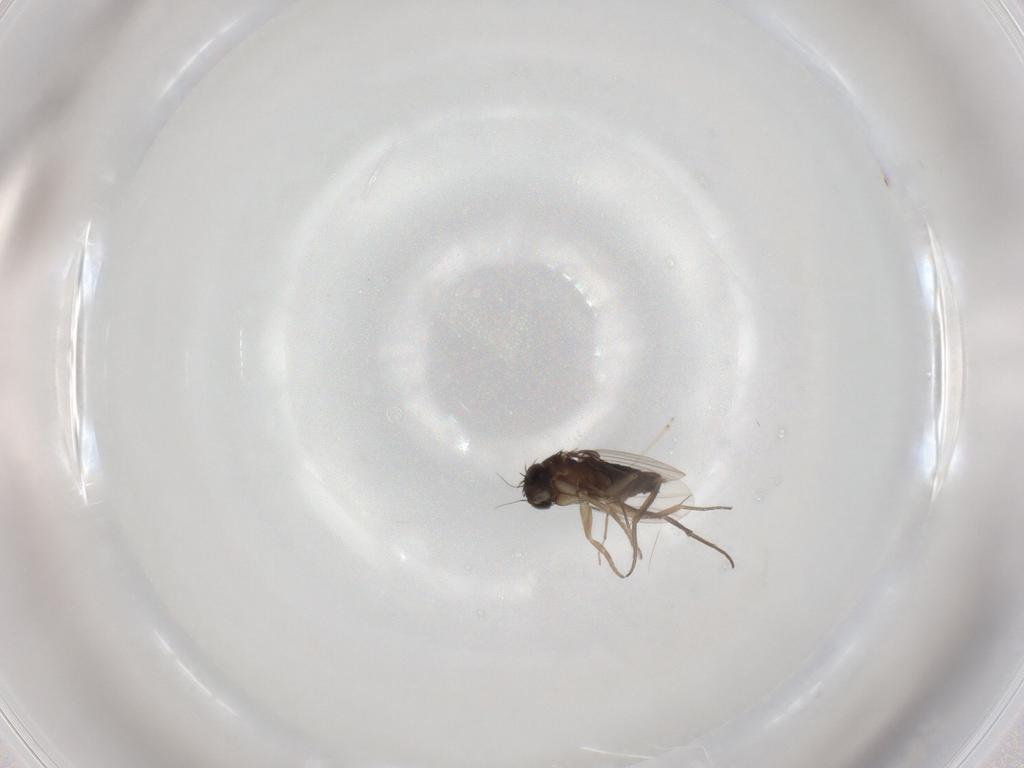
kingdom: Animalia
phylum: Arthropoda
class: Insecta
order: Diptera
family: Phoridae
